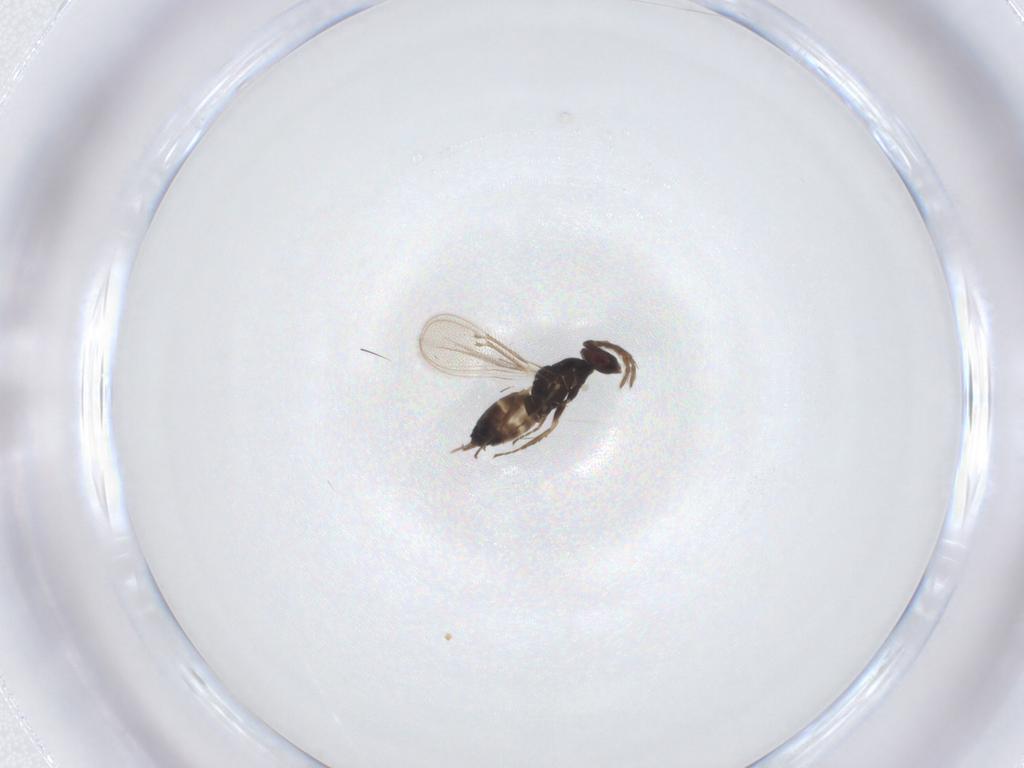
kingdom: Animalia
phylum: Arthropoda
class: Insecta
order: Hymenoptera
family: Eulophidae
